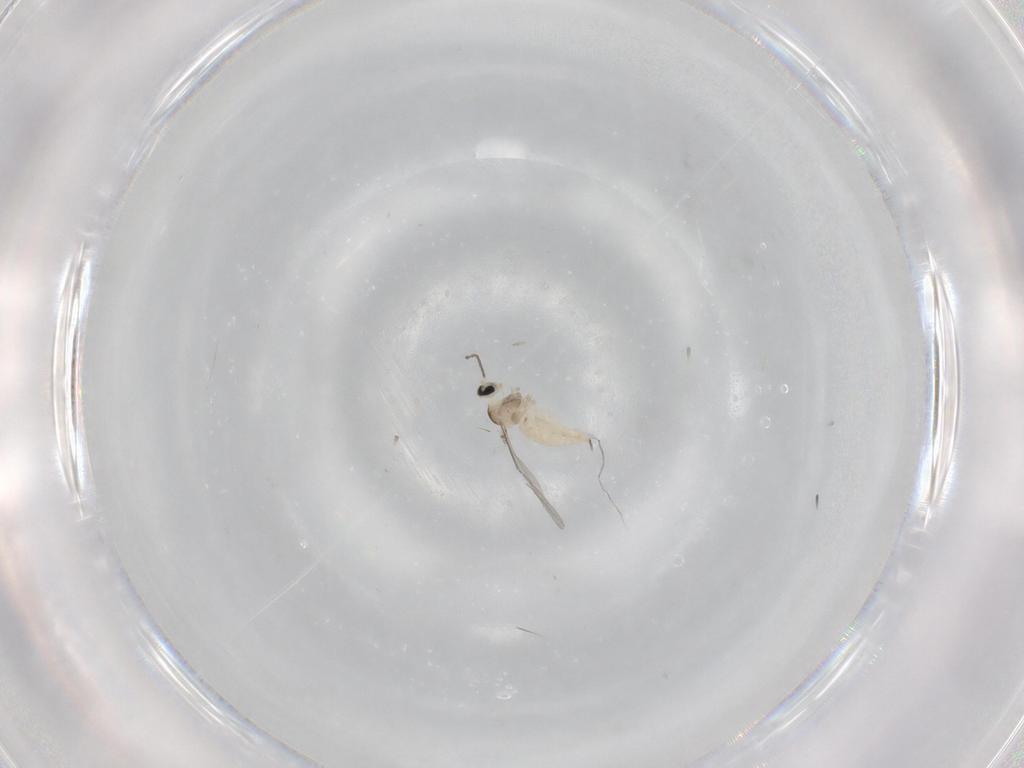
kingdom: Animalia
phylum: Arthropoda
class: Insecta
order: Diptera
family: Cecidomyiidae
